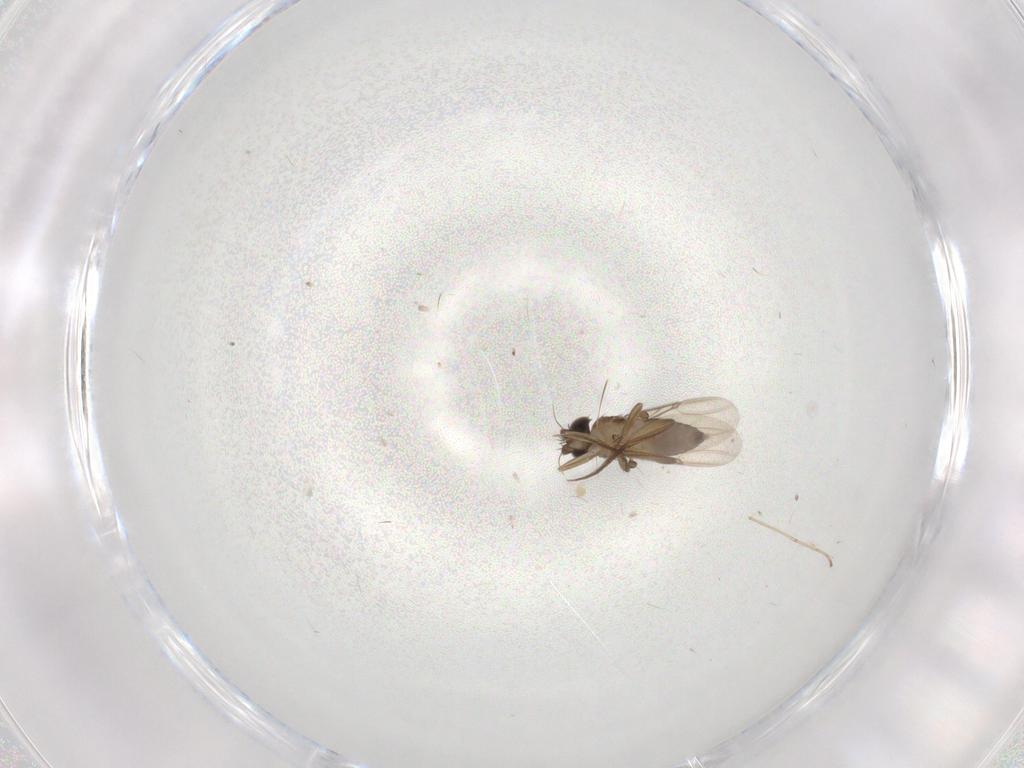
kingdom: Animalia
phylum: Arthropoda
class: Insecta
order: Diptera
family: Phoridae
